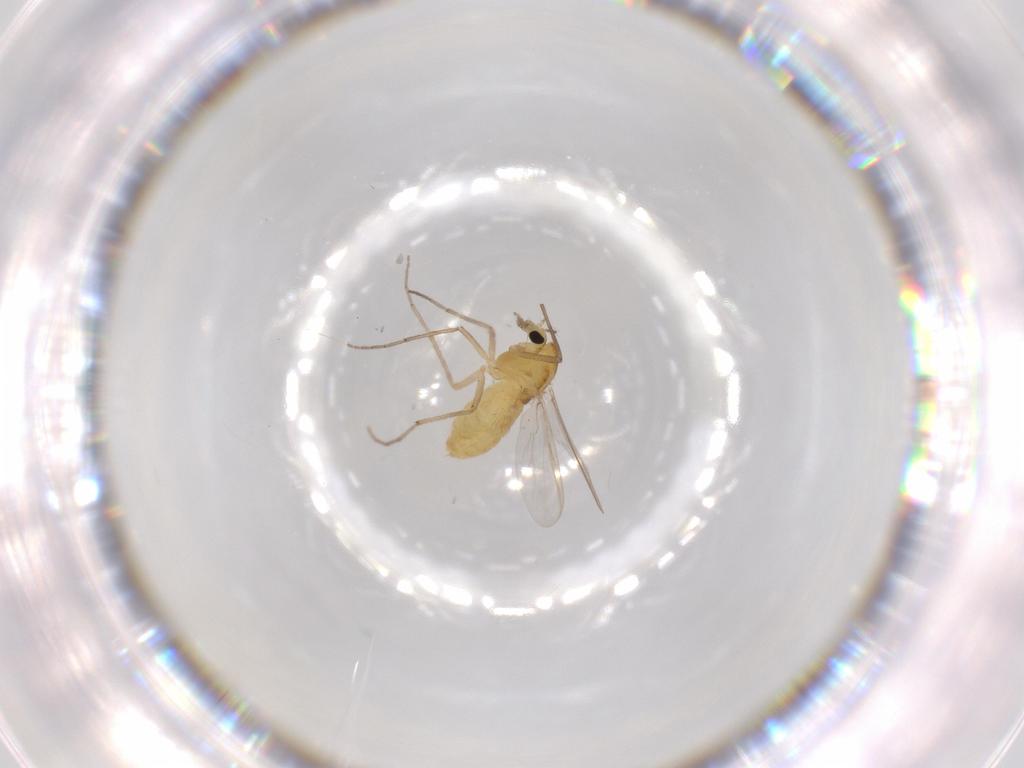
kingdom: Animalia
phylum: Arthropoda
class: Insecta
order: Diptera
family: Chironomidae
